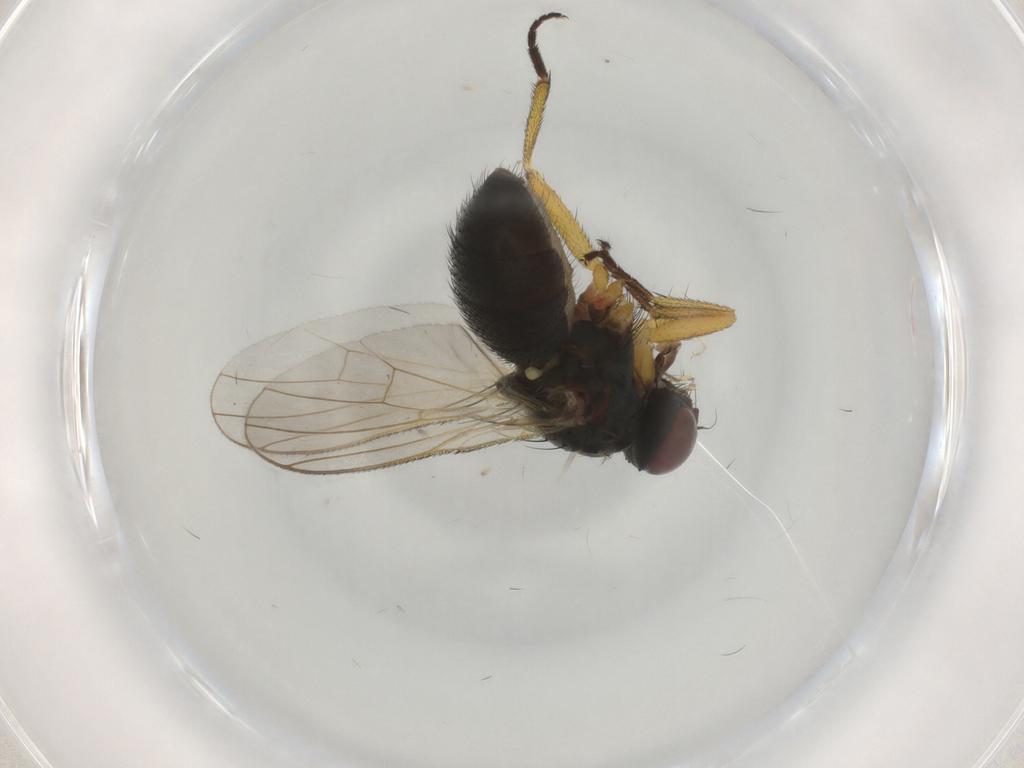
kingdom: Animalia
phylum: Arthropoda
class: Insecta
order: Diptera
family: Muscidae
